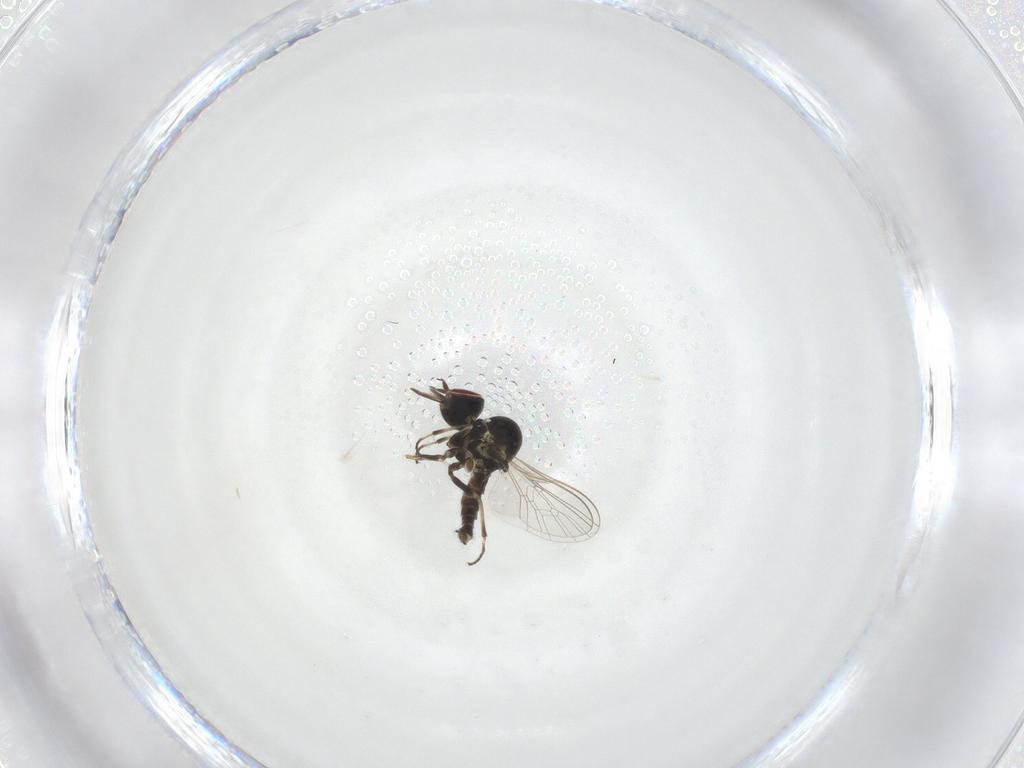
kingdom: Animalia
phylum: Arthropoda
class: Insecta
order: Diptera
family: Mythicomyiidae
